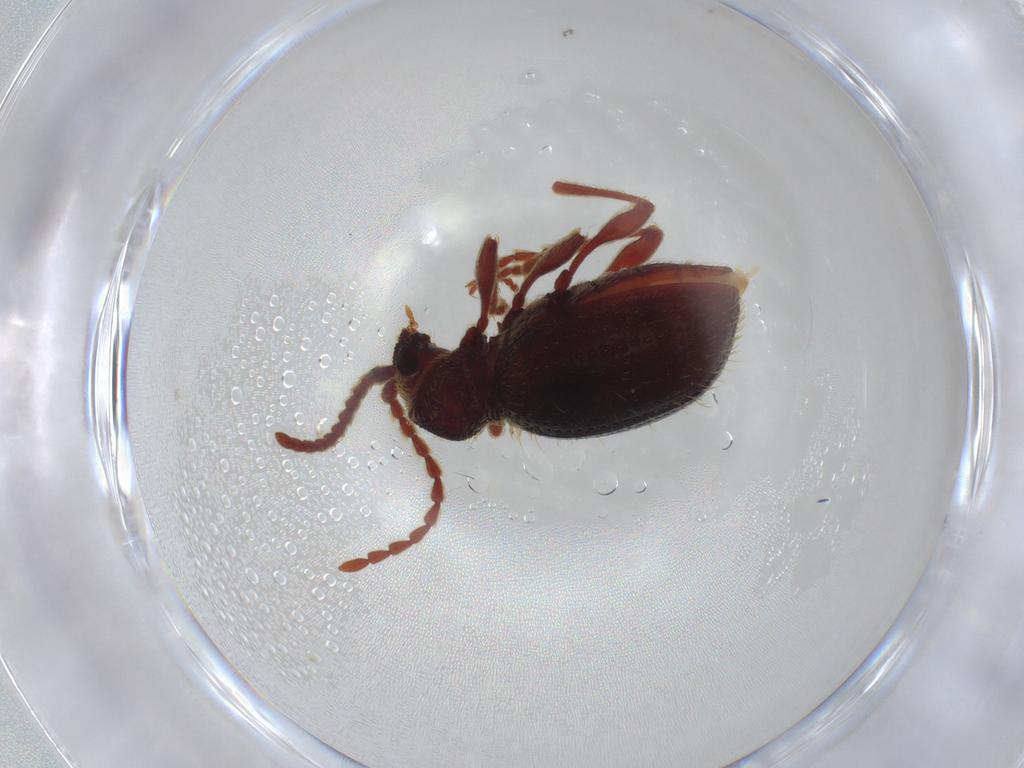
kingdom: Animalia
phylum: Arthropoda
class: Insecta
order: Coleoptera
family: Ptinidae
